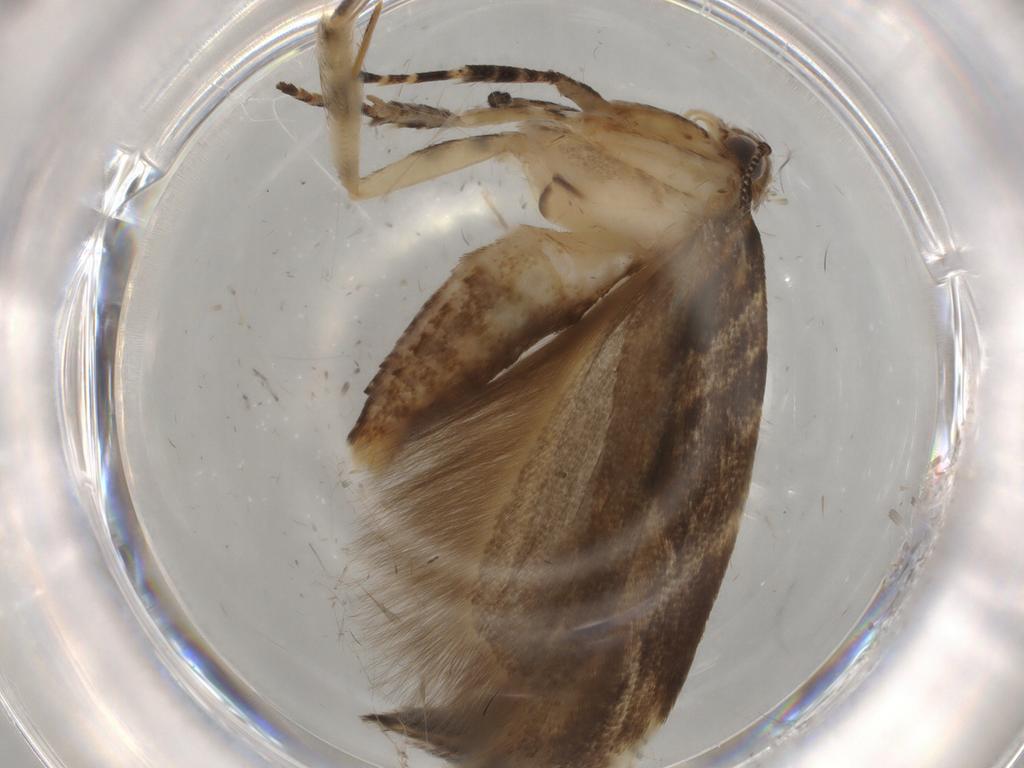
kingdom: Animalia
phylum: Arthropoda
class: Insecta
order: Lepidoptera
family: Gelechiidae
